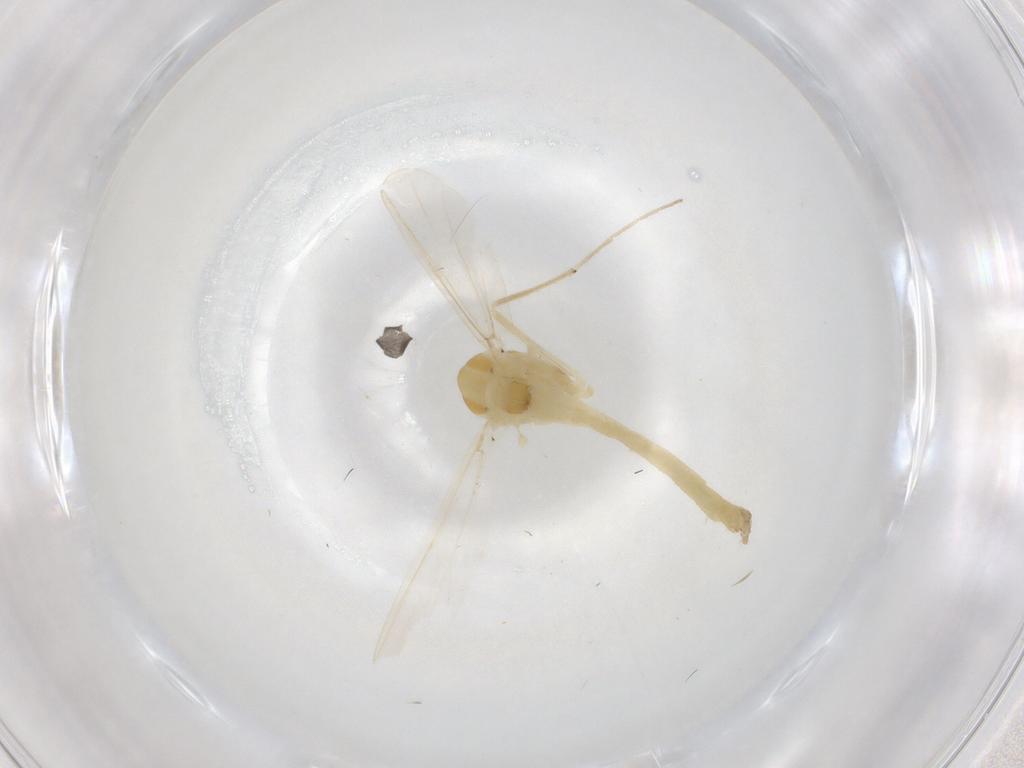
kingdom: Animalia
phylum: Arthropoda
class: Insecta
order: Diptera
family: Chironomidae
